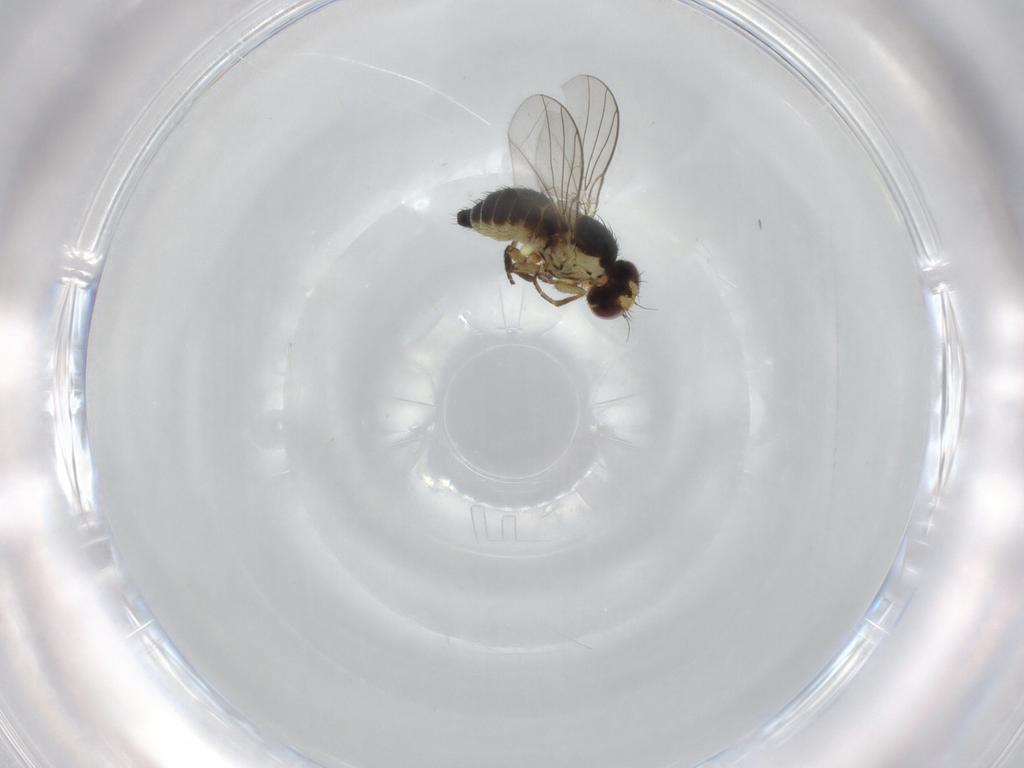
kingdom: Animalia
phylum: Arthropoda
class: Insecta
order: Diptera
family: Agromyzidae
